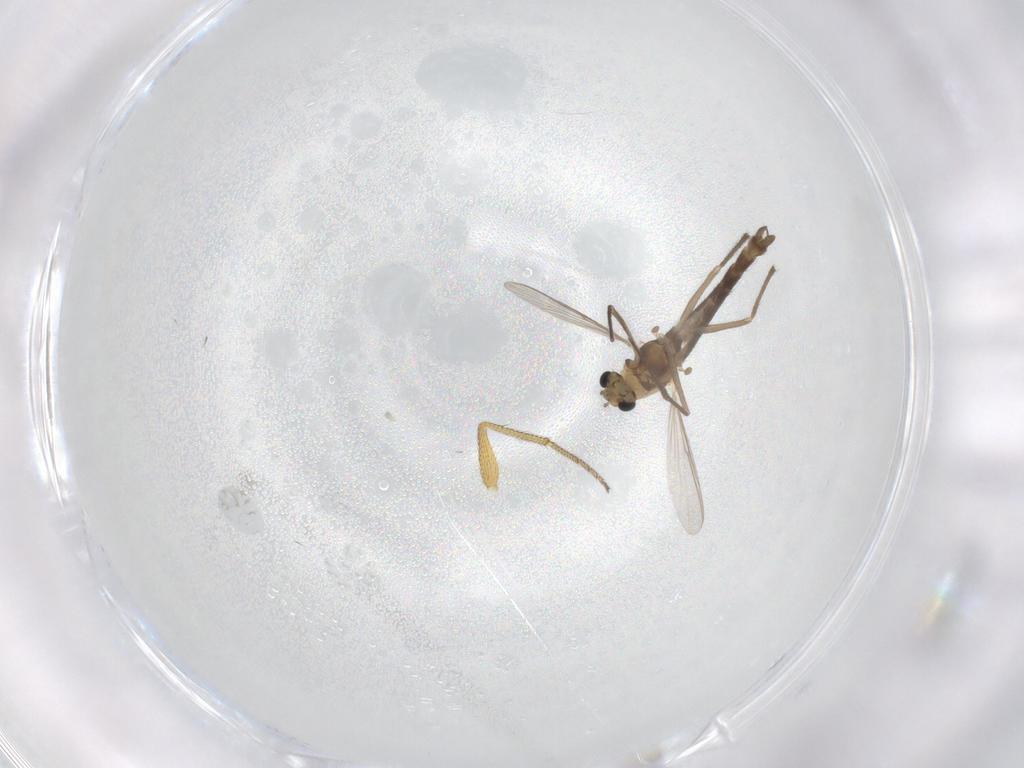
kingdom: Animalia
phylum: Arthropoda
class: Insecta
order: Diptera
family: Chironomidae
